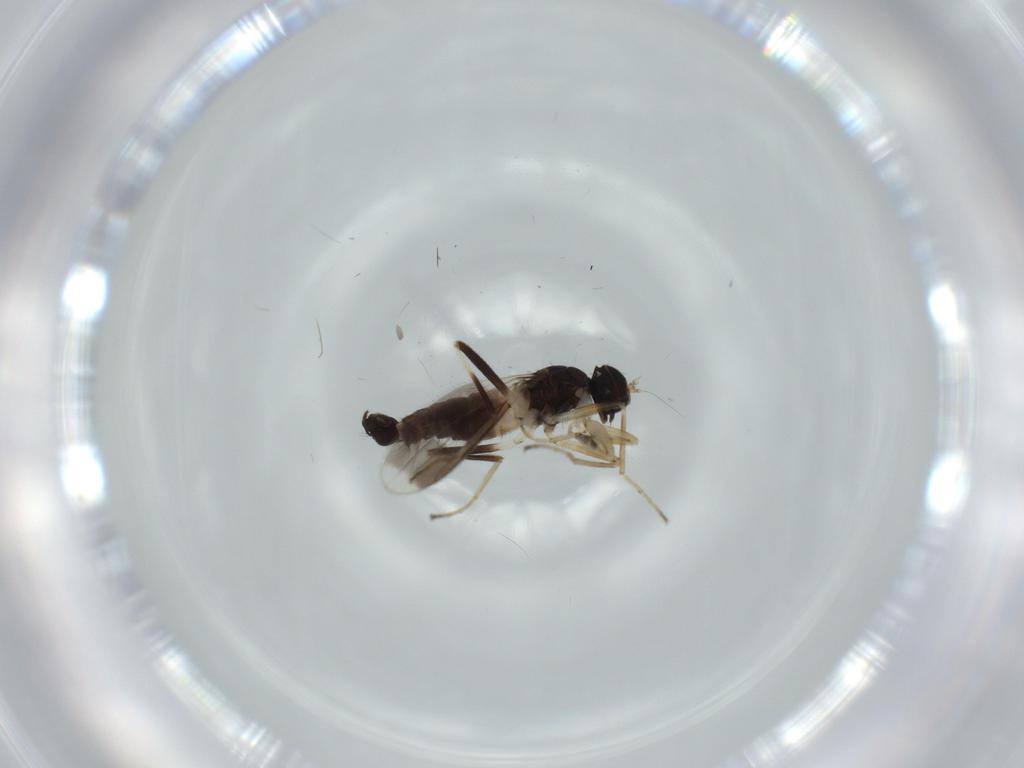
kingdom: Animalia
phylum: Arthropoda
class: Insecta
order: Diptera
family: Hybotidae
